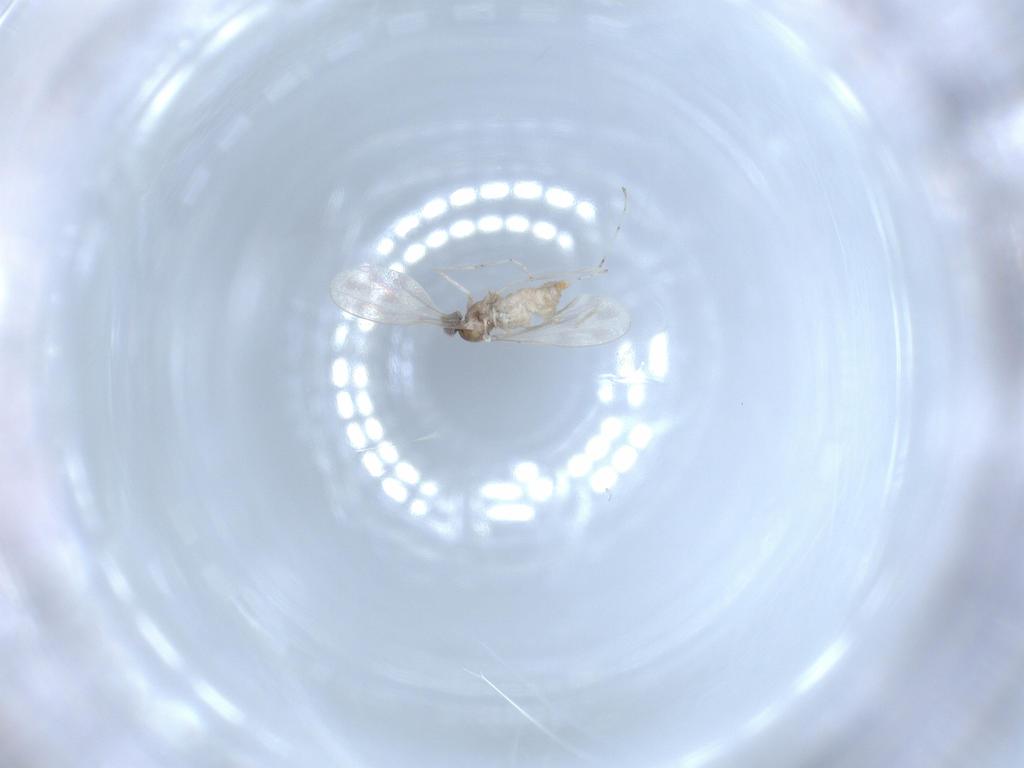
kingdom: Animalia
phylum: Arthropoda
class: Insecta
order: Diptera
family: Cecidomyiidae
